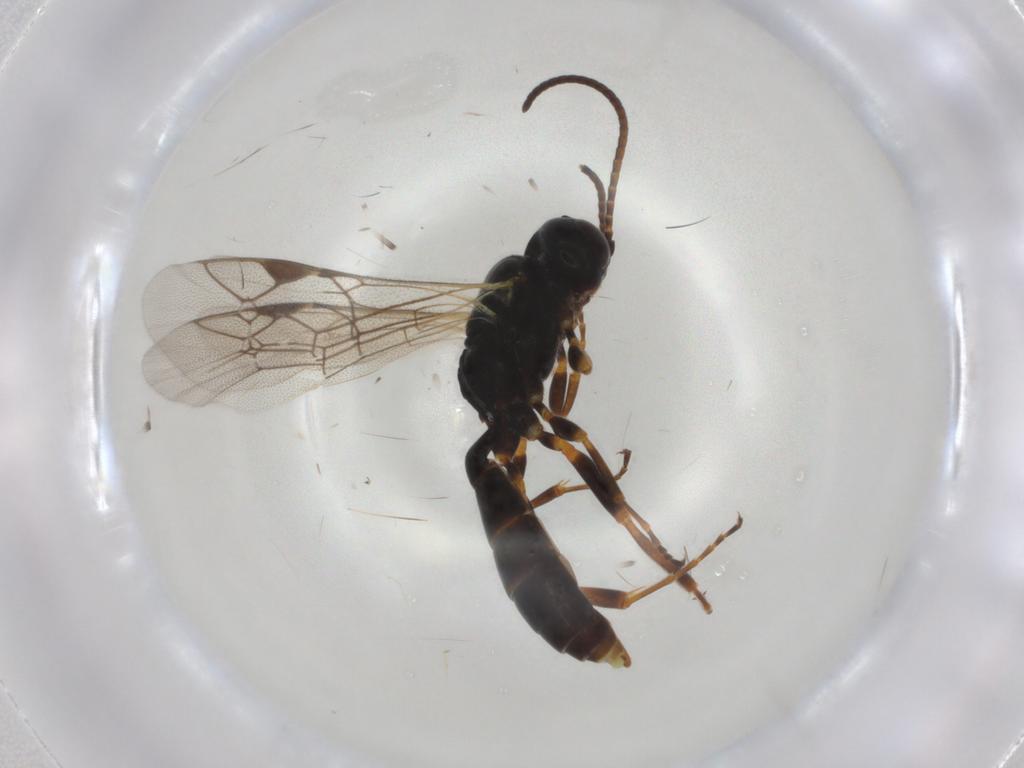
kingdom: Animalia
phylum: Arthropoda
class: Insecta
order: Hymenoptera
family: Ichneumonidae
